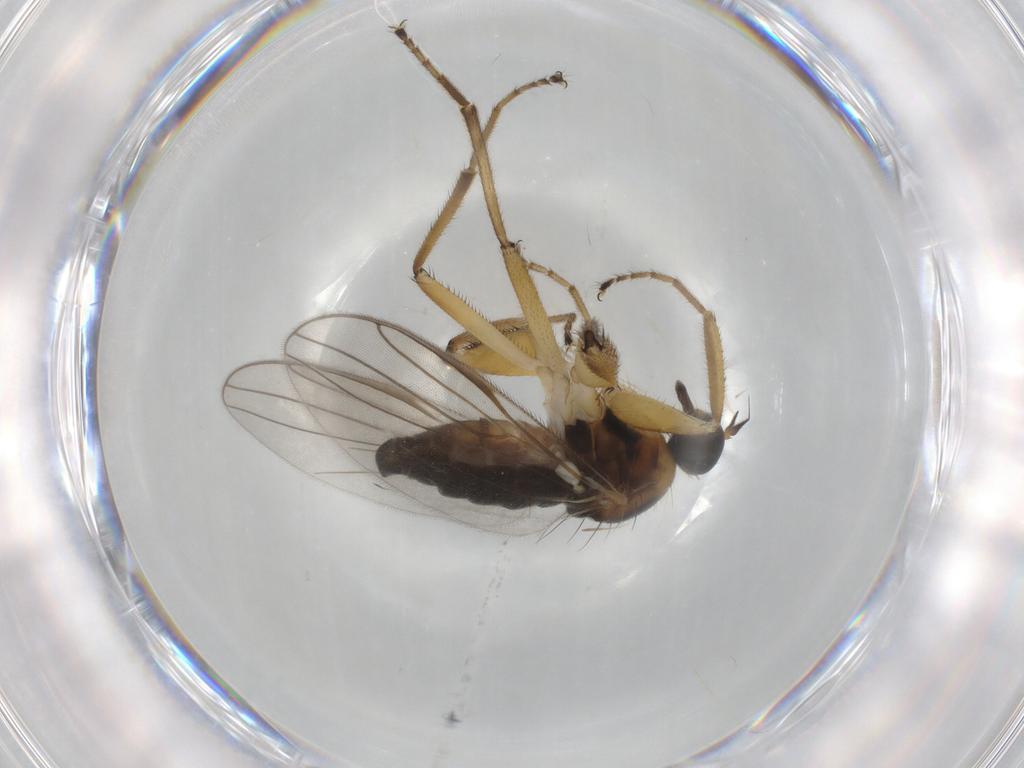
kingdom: Animalia
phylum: Arthropoda
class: Insecta
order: Diptera
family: Hybotidae
